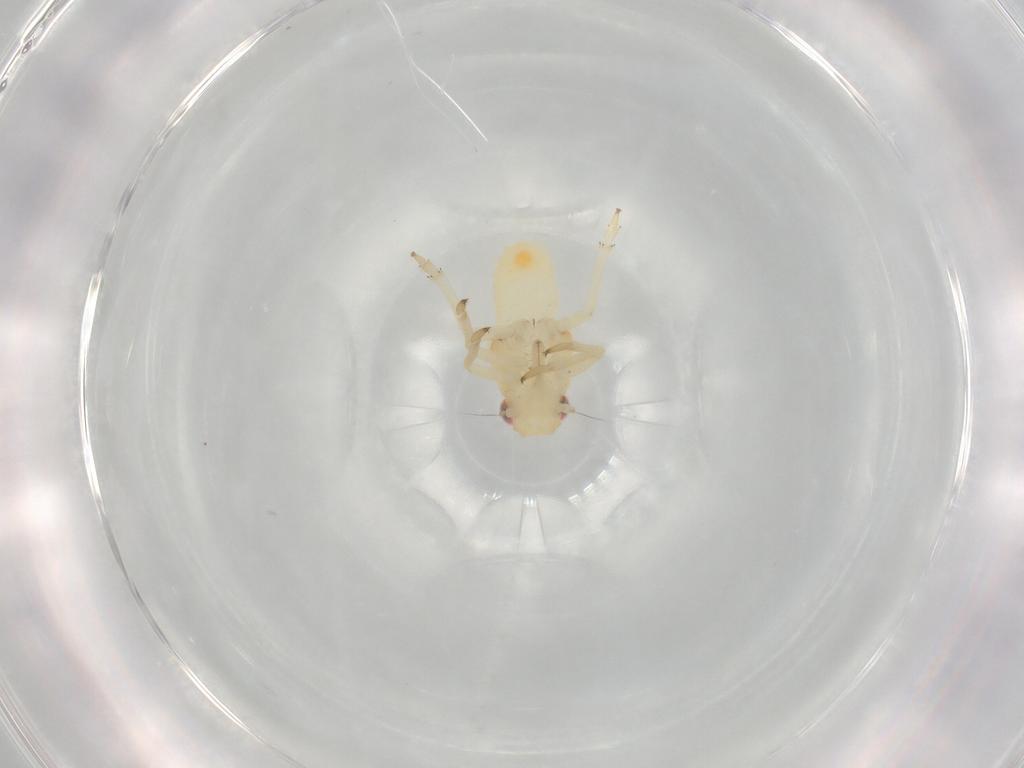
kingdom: Animalia
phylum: Arthropoda
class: Insecta
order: Hemiptera
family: Caliscelidae
